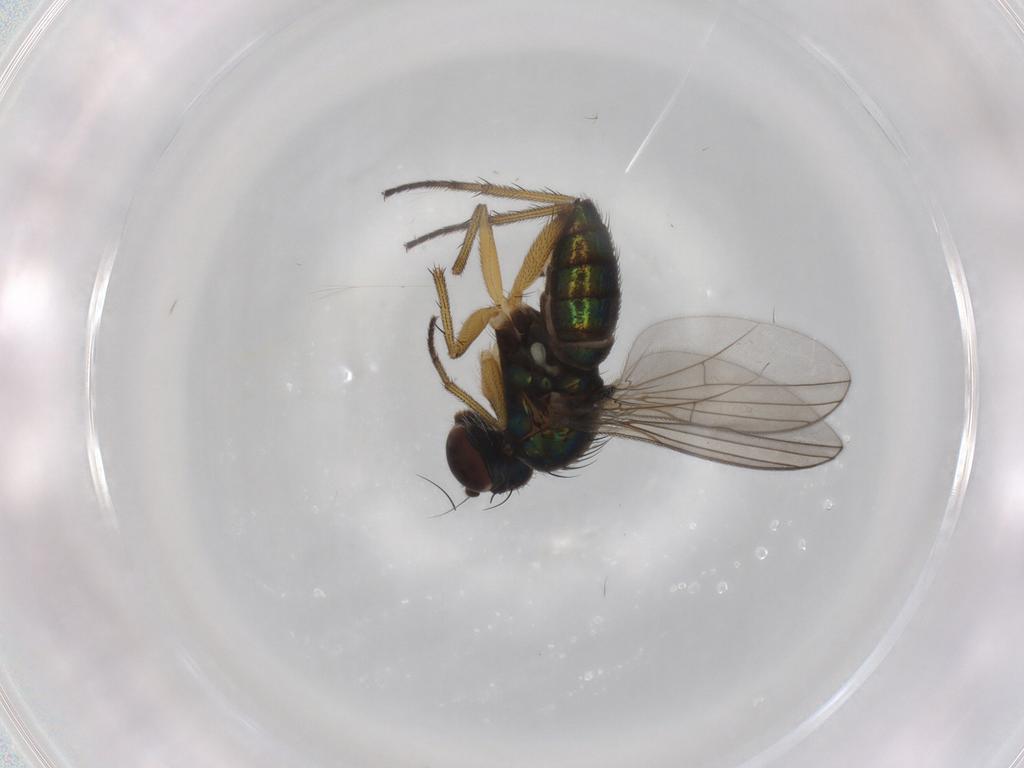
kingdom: Animalia
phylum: Arthropoda
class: Insecta
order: Diptera
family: Dolichopodidae
